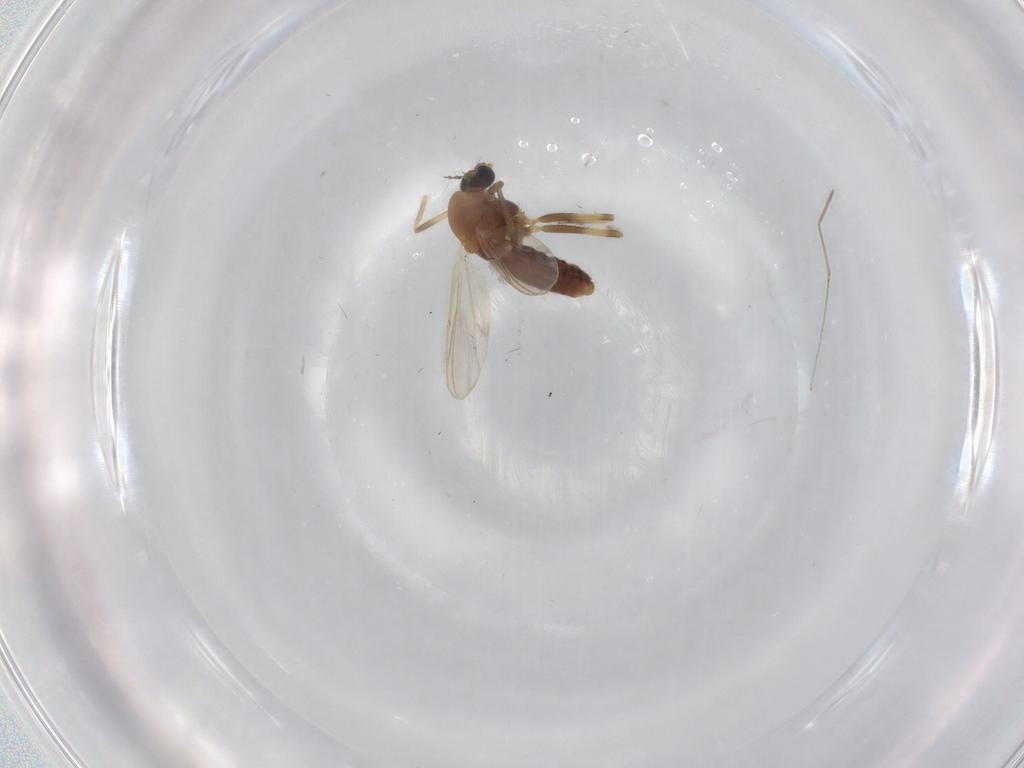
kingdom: Animalia
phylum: Arthropoda
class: Insecta
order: Diptera
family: Chironomidae
